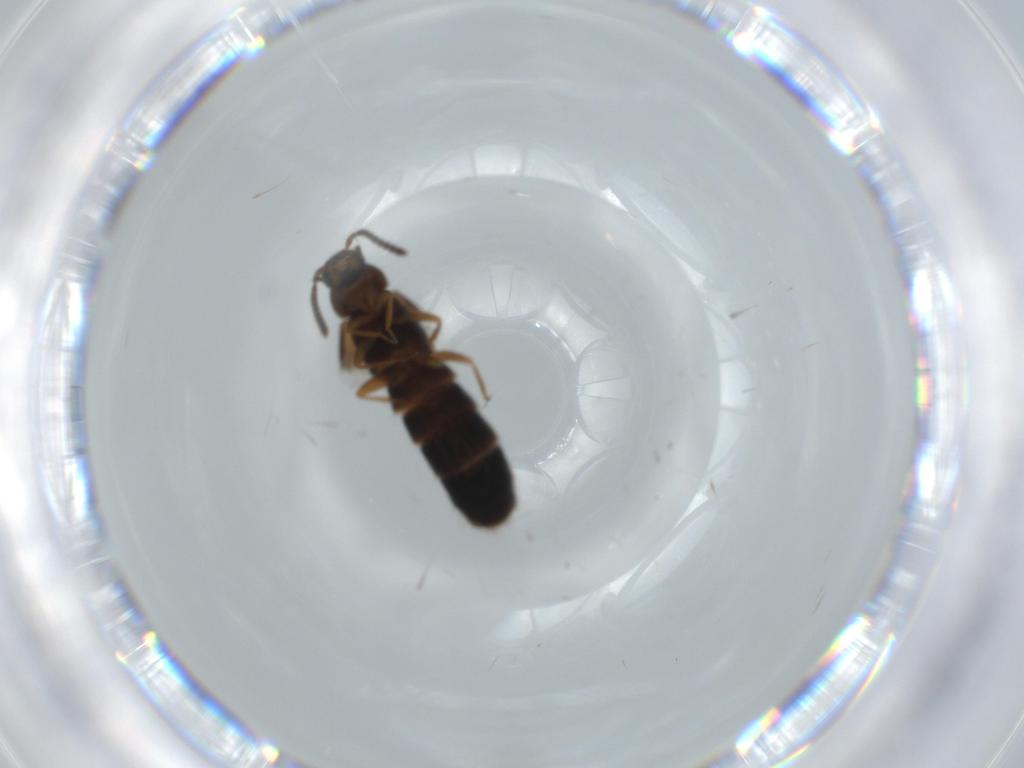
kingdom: Animalia
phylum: Arthropoda
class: Insecta
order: Coleoptera
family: Chrysomelidae
